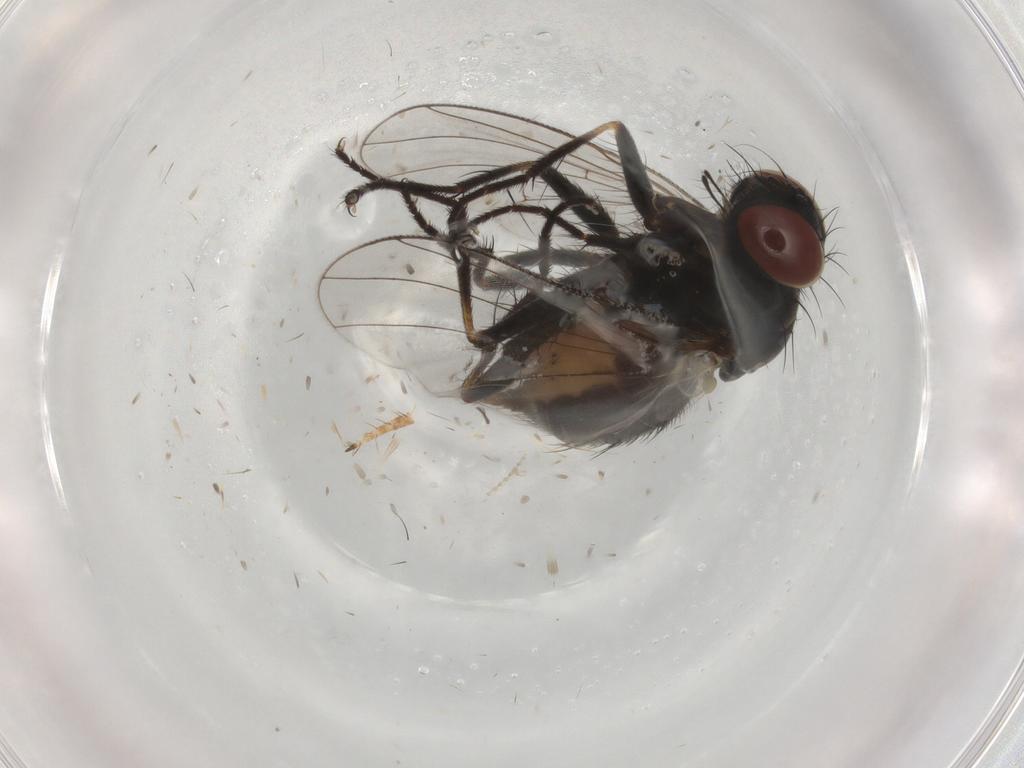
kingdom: Animalia
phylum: Arthropoda
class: Insecta
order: Diptera
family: Muscidae
